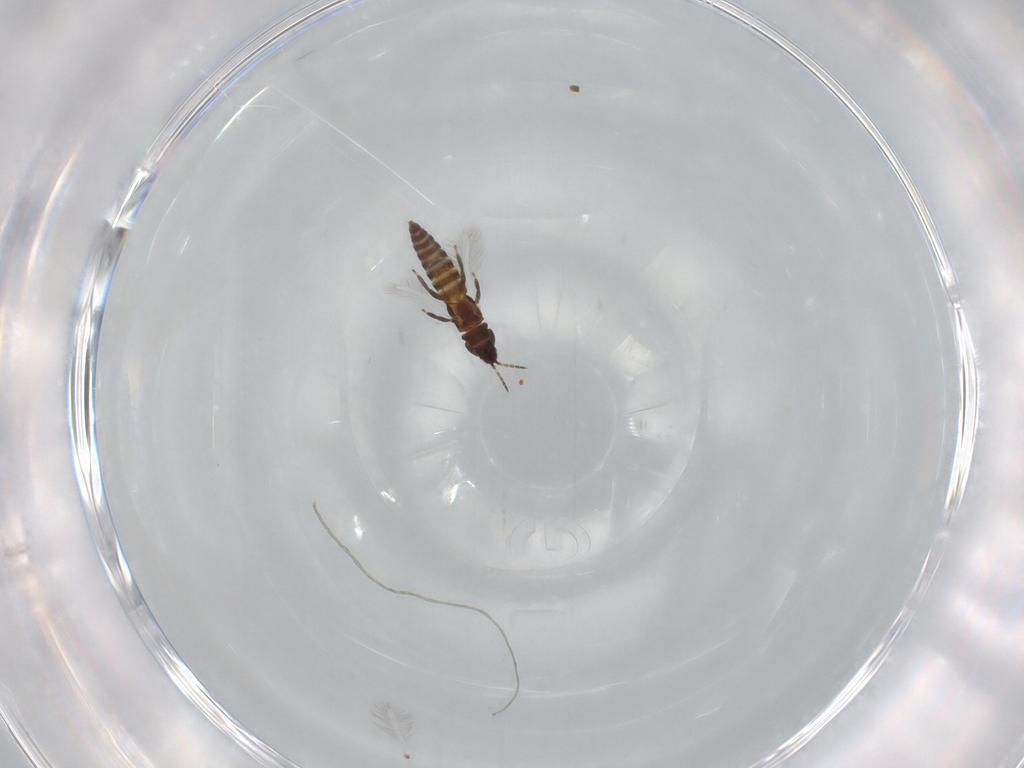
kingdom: Animalia
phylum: Arthropoda
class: Insecta
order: Thysanoptera
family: Phlaeothripidae
